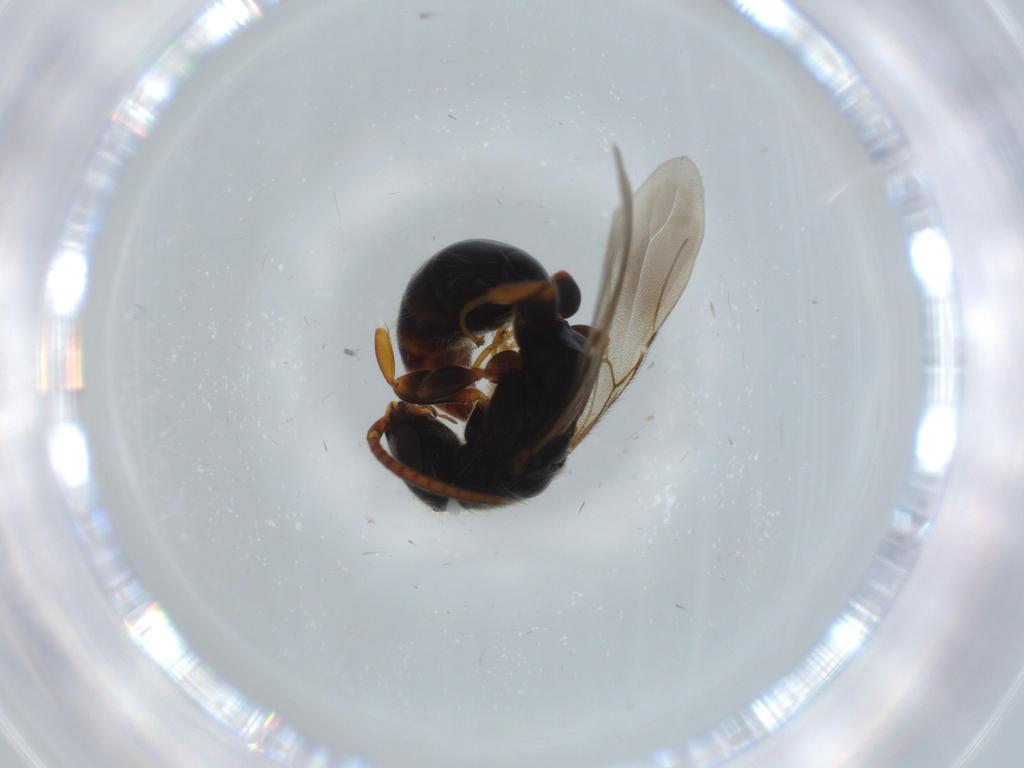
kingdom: Animalia
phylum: Arthropoda
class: Insecta
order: Hymenoptera
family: Bethylidae
